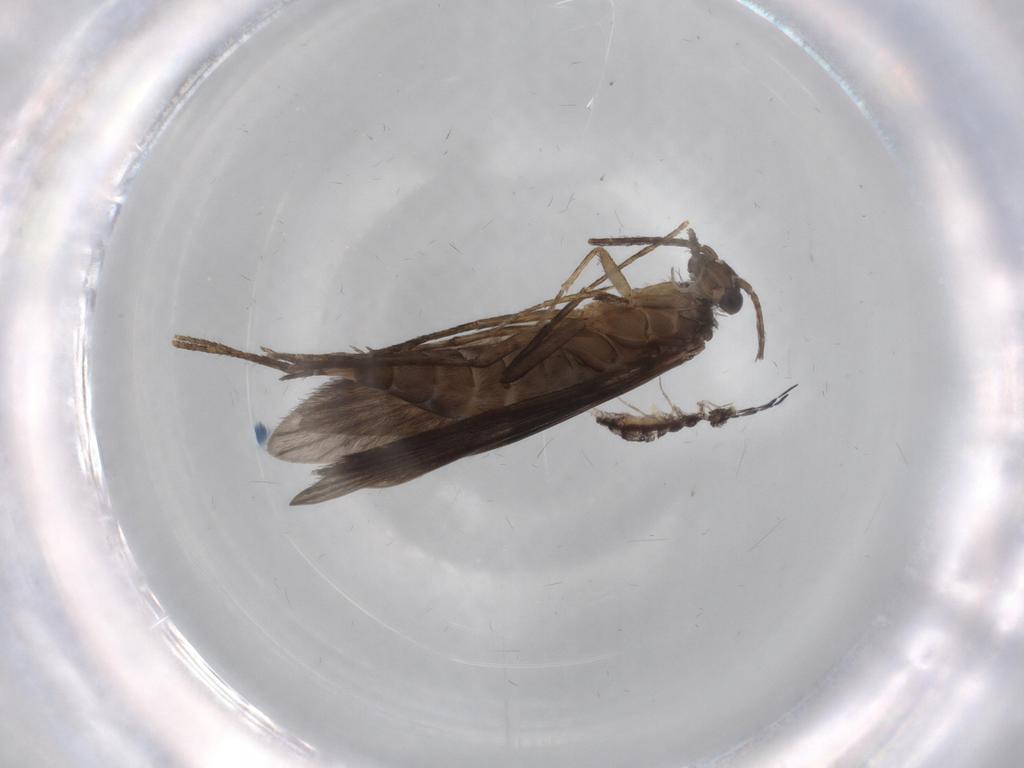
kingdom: Animalia
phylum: Arthropoda
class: Insecta
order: Trichoptera
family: Xiphocentronidae
